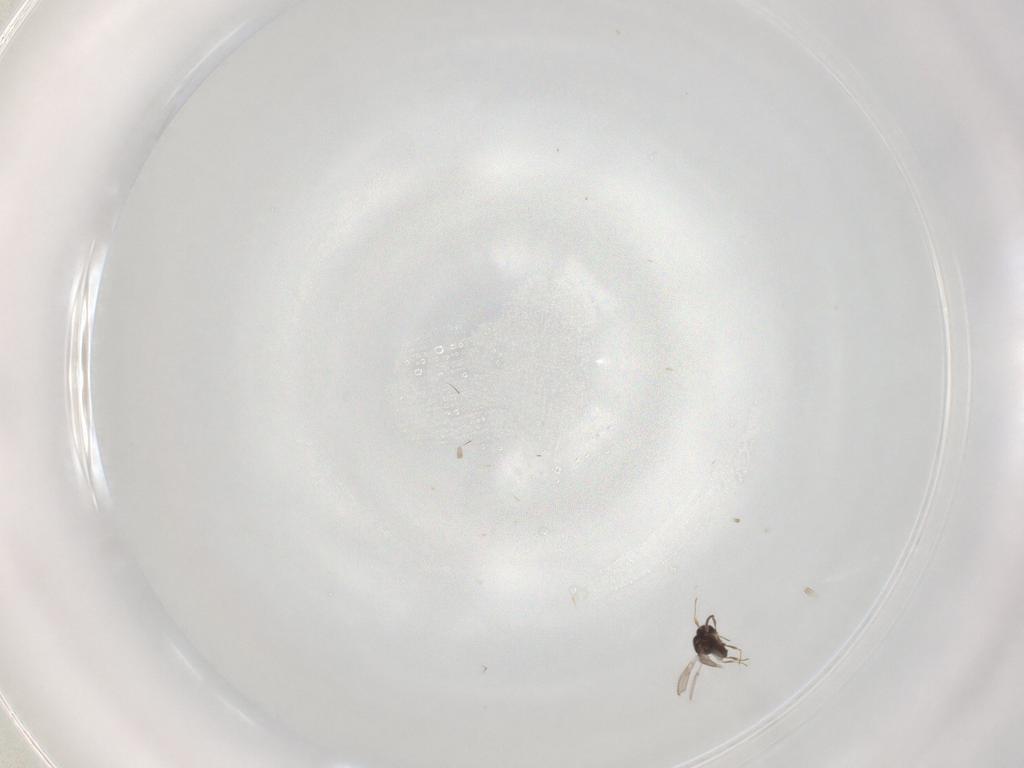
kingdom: Animalia
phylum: Arthropoda
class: Insecta
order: Hymenoptera
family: Scelionidae
